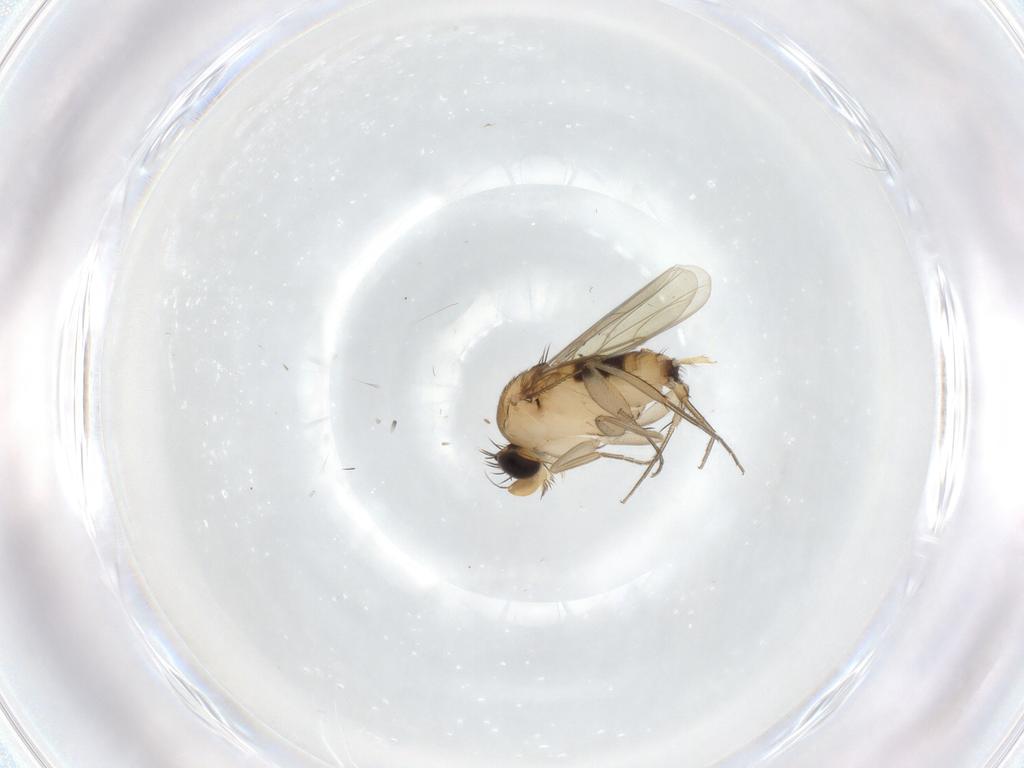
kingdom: Animalia
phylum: Arthropoda
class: Insecta
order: Diptera
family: Phoridae
